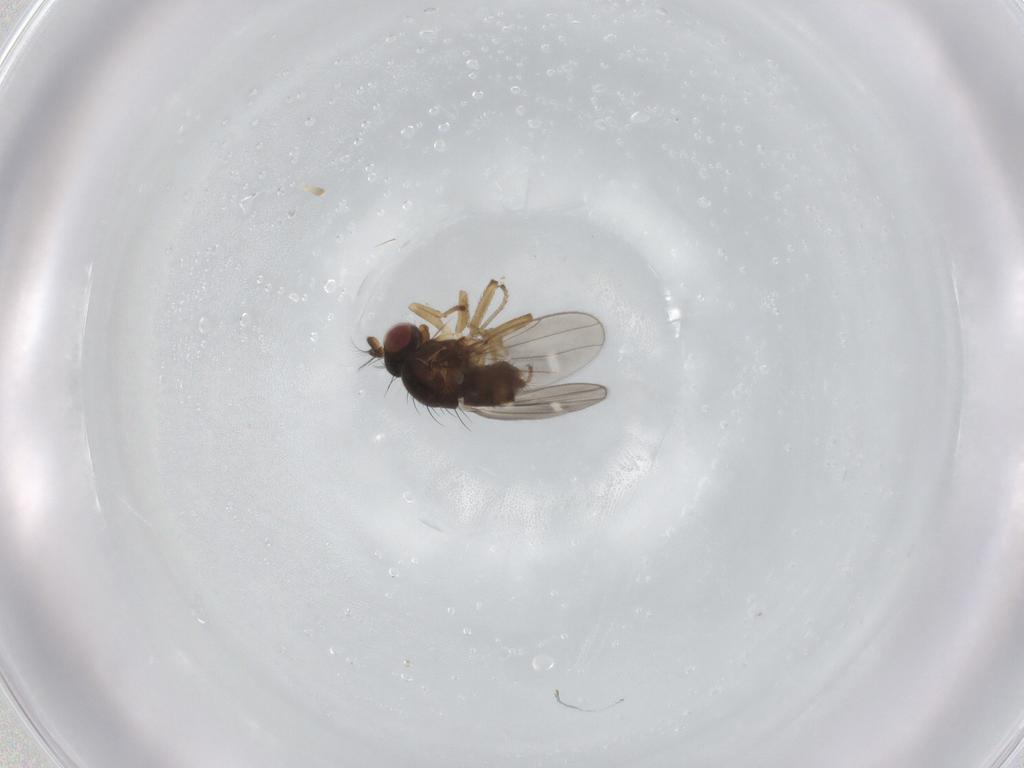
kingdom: Animalia
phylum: Arthropoda
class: Insecta
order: Diptera
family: Ephydridae
